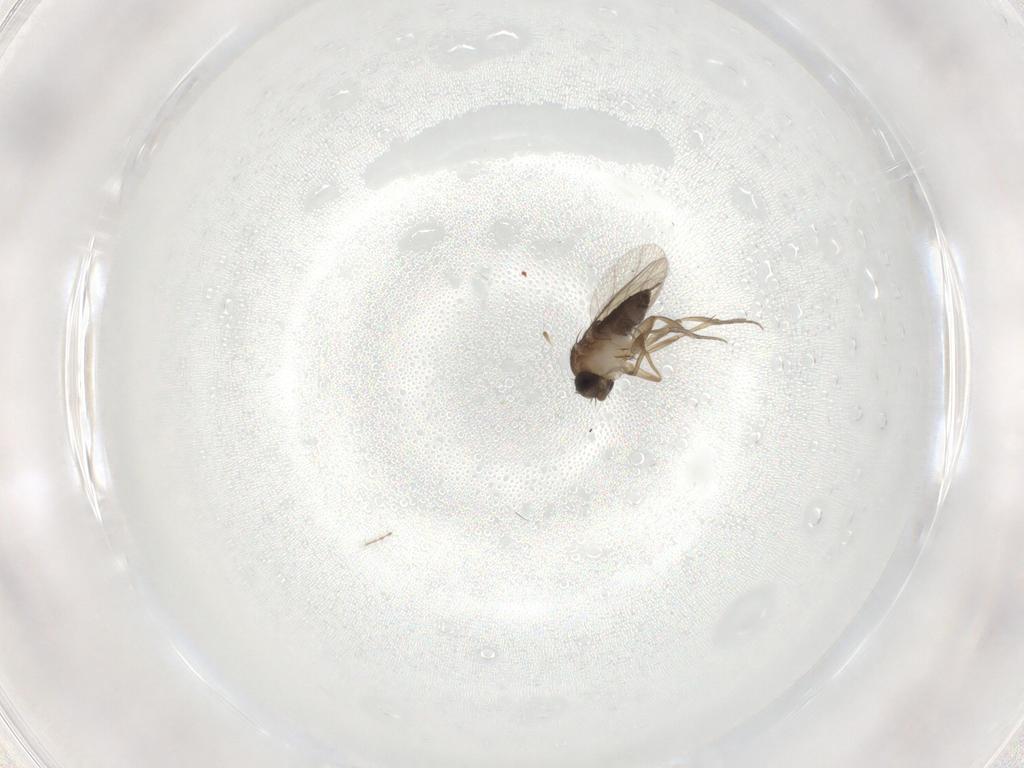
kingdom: Animalia
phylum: Arthropoda
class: Insecta
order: Diptera
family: Phoridae
